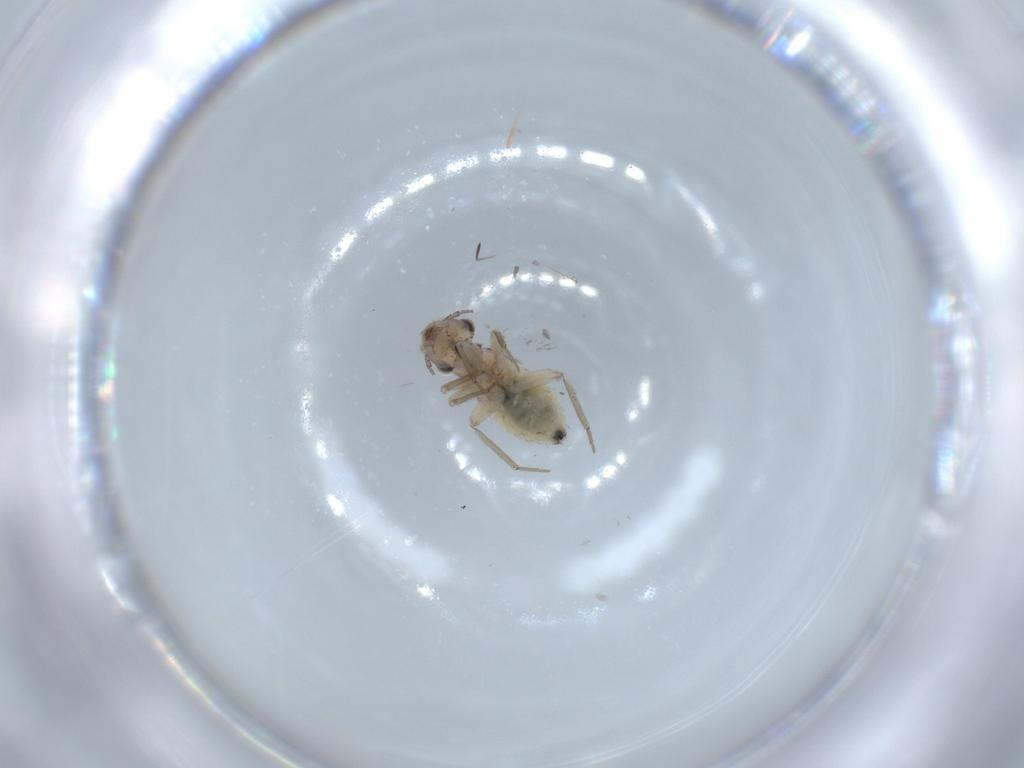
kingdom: Animalia
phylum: Arthropoda
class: Insecta
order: Psocodea
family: Lepidopsocidae
